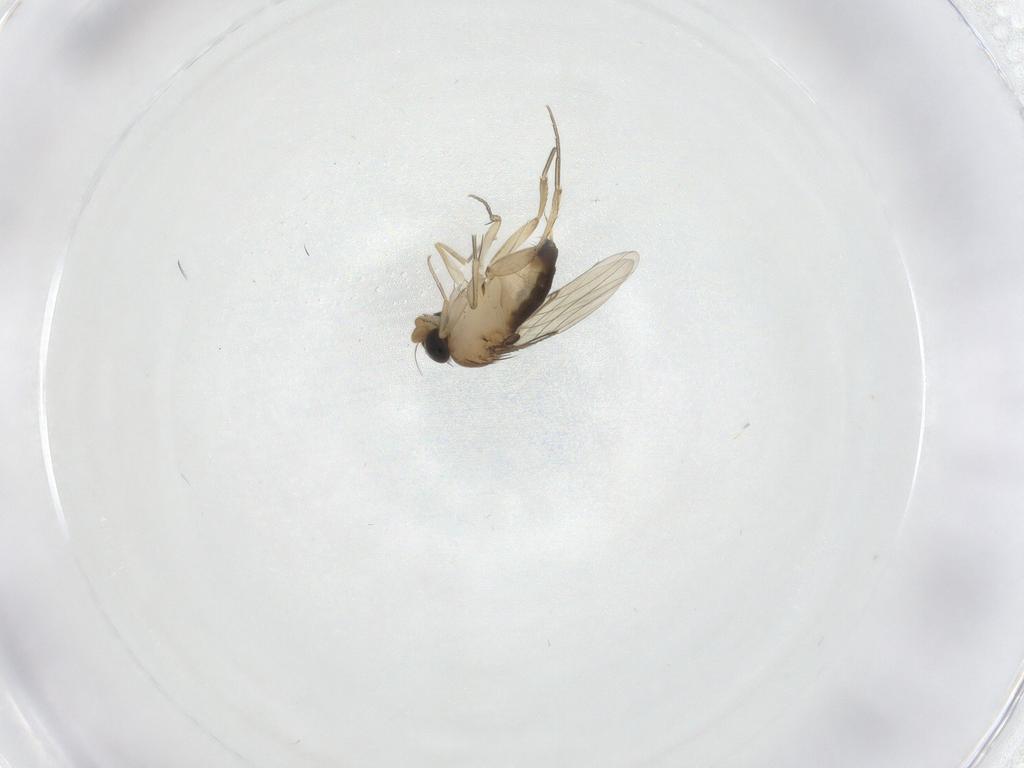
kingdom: Animalia
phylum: Arthropoda
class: Insecta
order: Diptera
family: Phoridae
